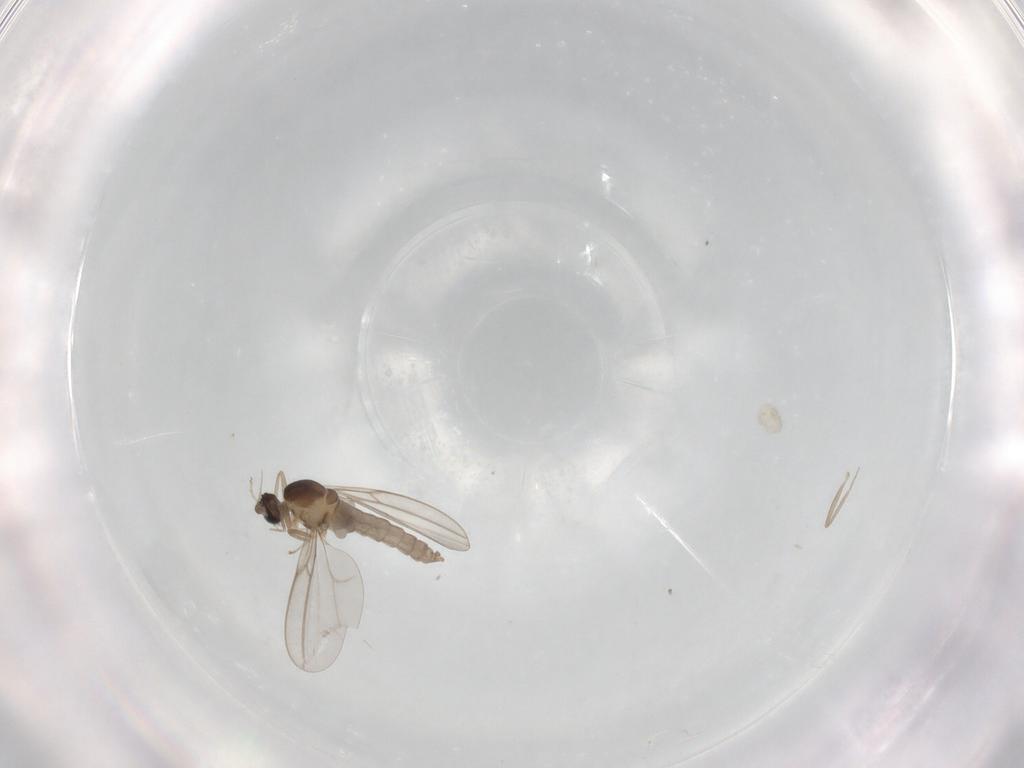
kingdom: Animalia
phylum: Arthropoda
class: Insecta
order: Diptera
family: Cecidomyiidae
